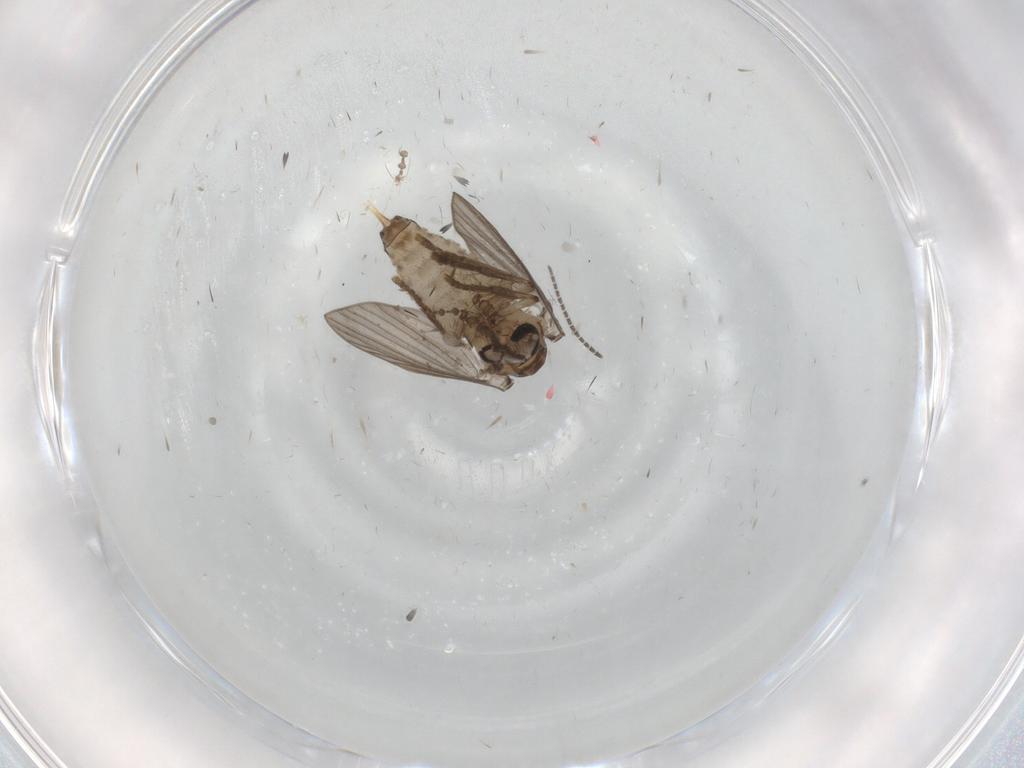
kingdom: Animalia
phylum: Arthropoda
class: Insecta
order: Diptera
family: Psychodidae
